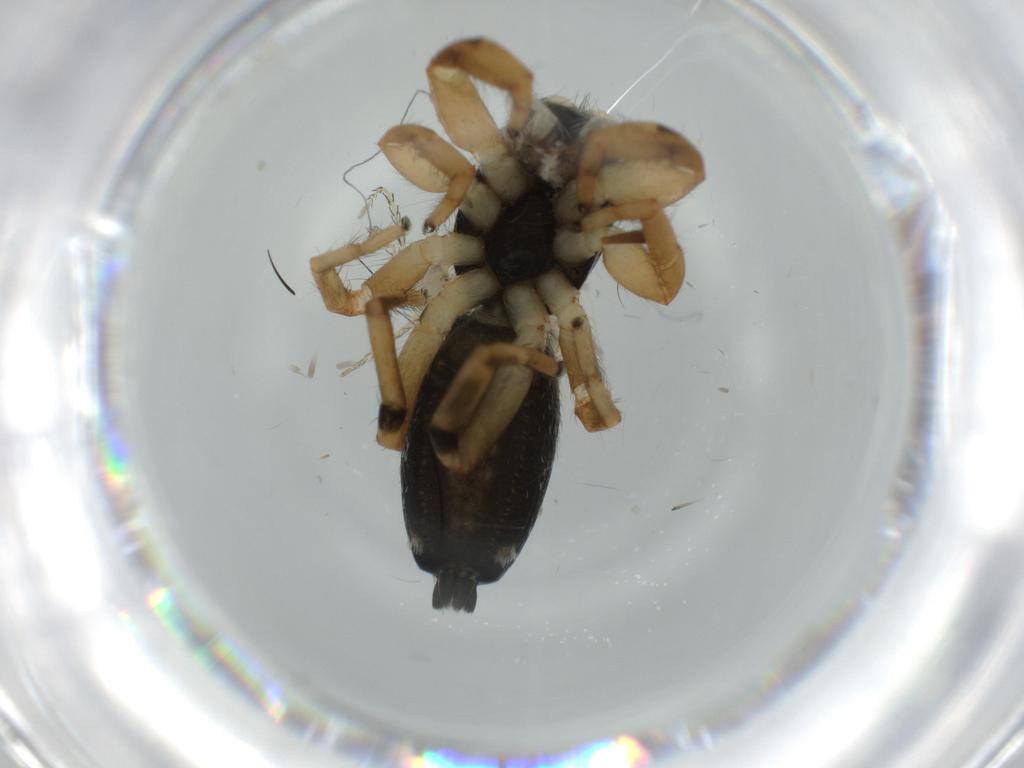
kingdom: Animalia
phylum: Arthropoda
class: Arachnida
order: Araneae
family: Salticidae
